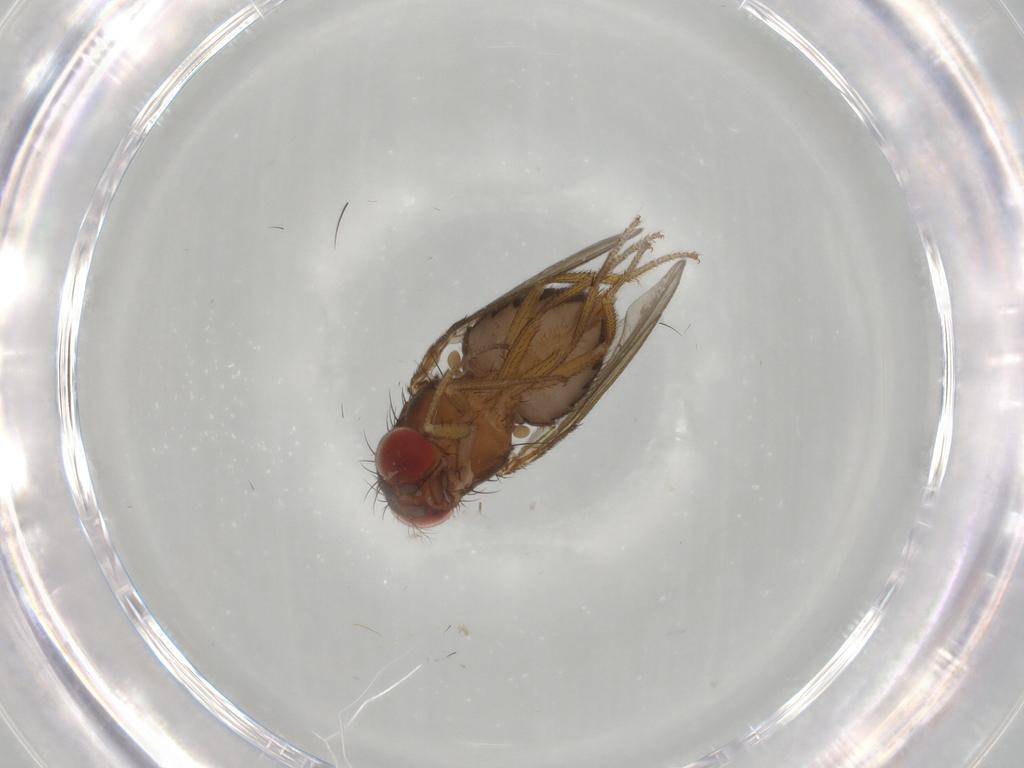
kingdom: Animalia
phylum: Arthropoda
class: Insecta
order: Diptera
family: Drosophilidae
